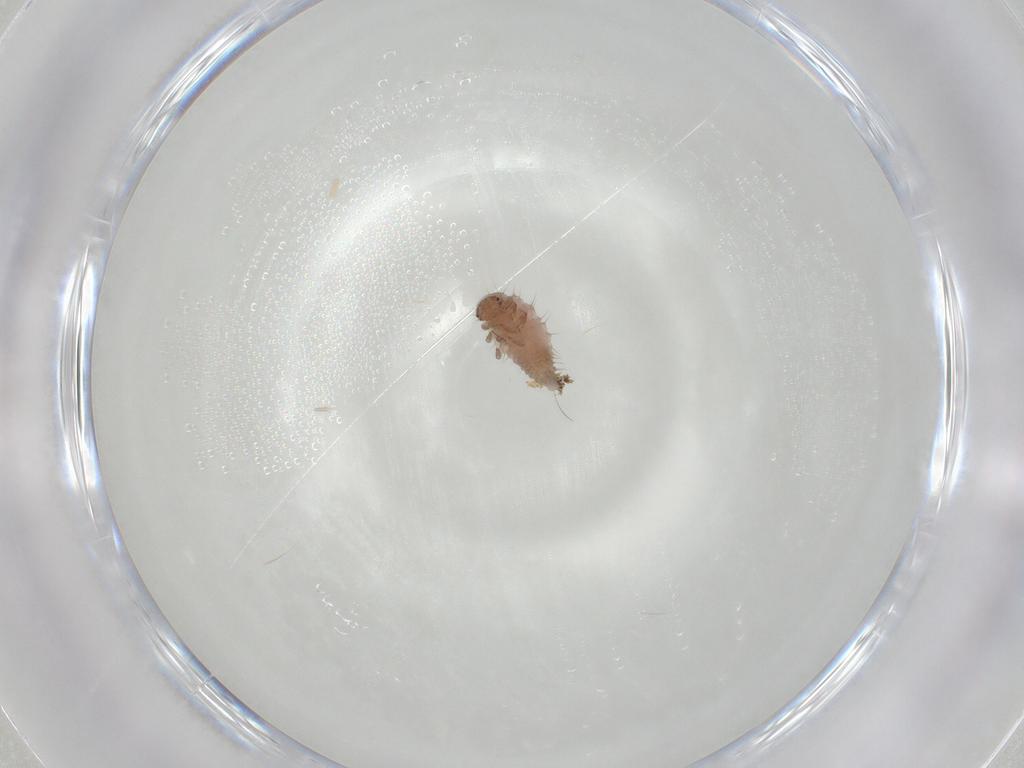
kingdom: Animalia
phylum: Arthropoda
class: Insecta
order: Coleoptera
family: Coccinellidae
